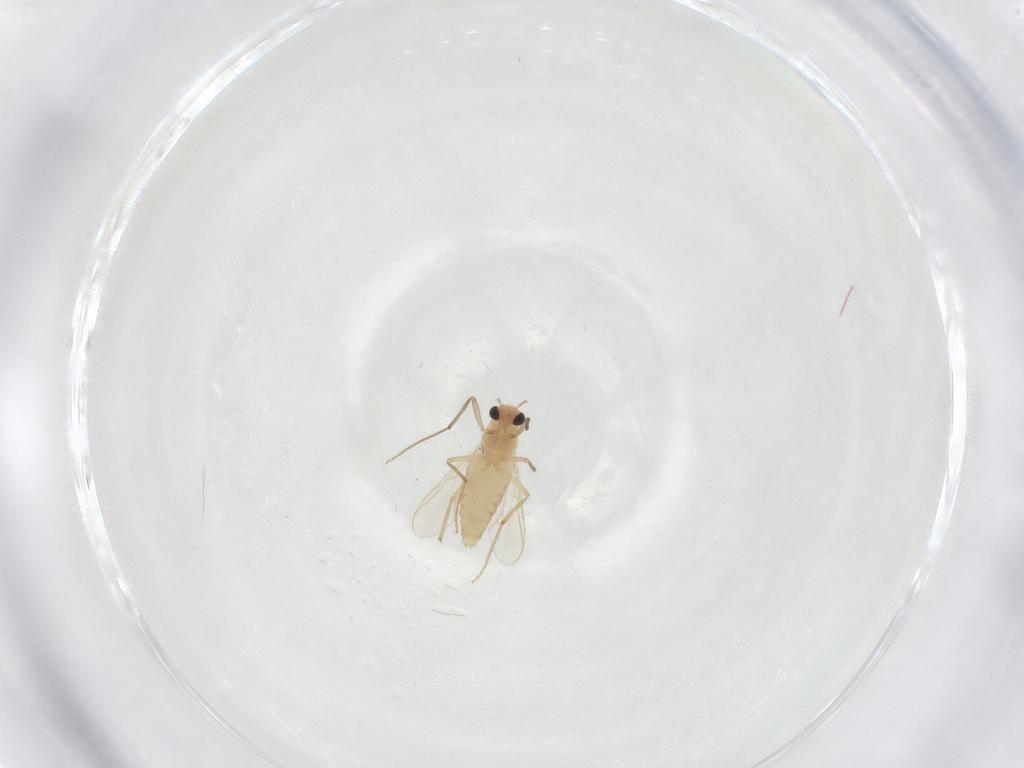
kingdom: Animalia
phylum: Arthropoda
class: Insecta
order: Diptera
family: Chironomidae
